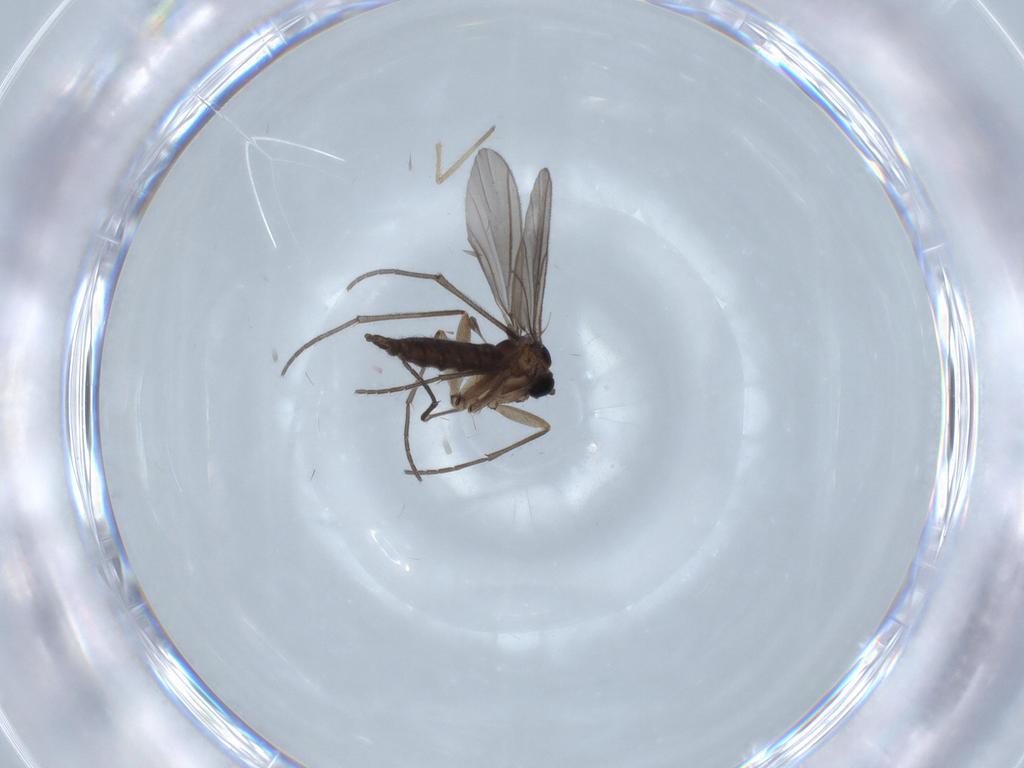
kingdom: Animalia
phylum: Arthropoda
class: Insecta
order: Diptera
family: Sciaridae
